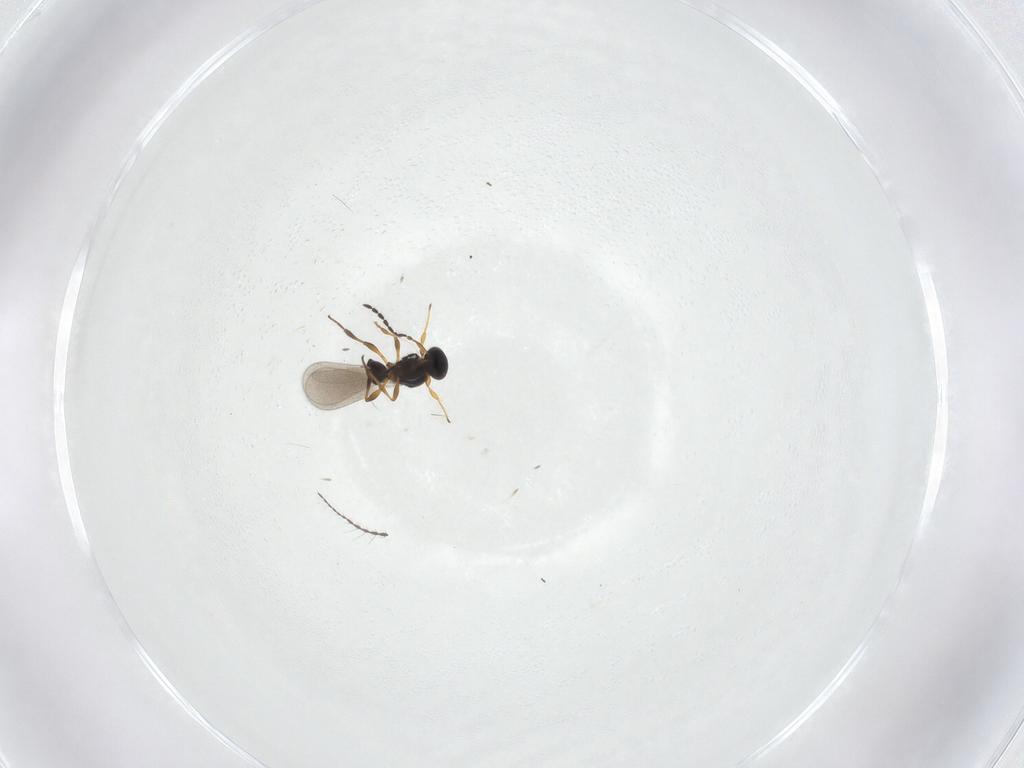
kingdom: Animalia
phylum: Arthropoda
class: Insecta
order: Hymenoptera
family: Platygastridae
